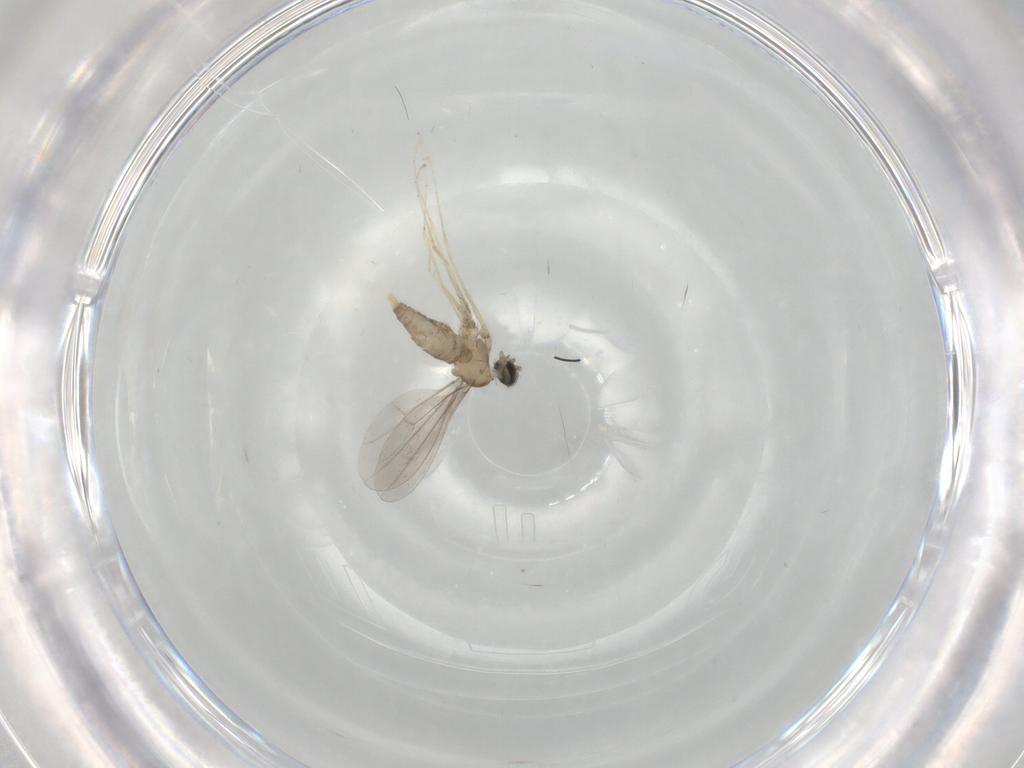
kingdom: Animalia
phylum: Arthropoda
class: Insecta
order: Diptera
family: Cecidomyiidae
